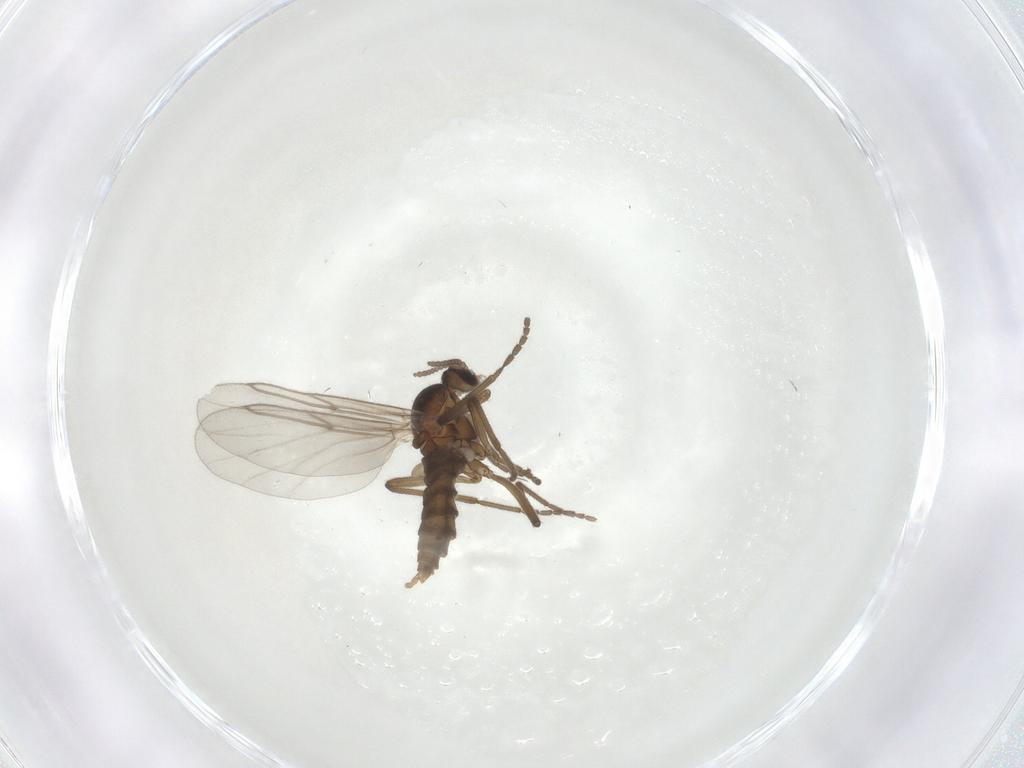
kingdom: Animalia
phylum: Arthropoda
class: Insecta
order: Diptera
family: Cecidomyiidae
